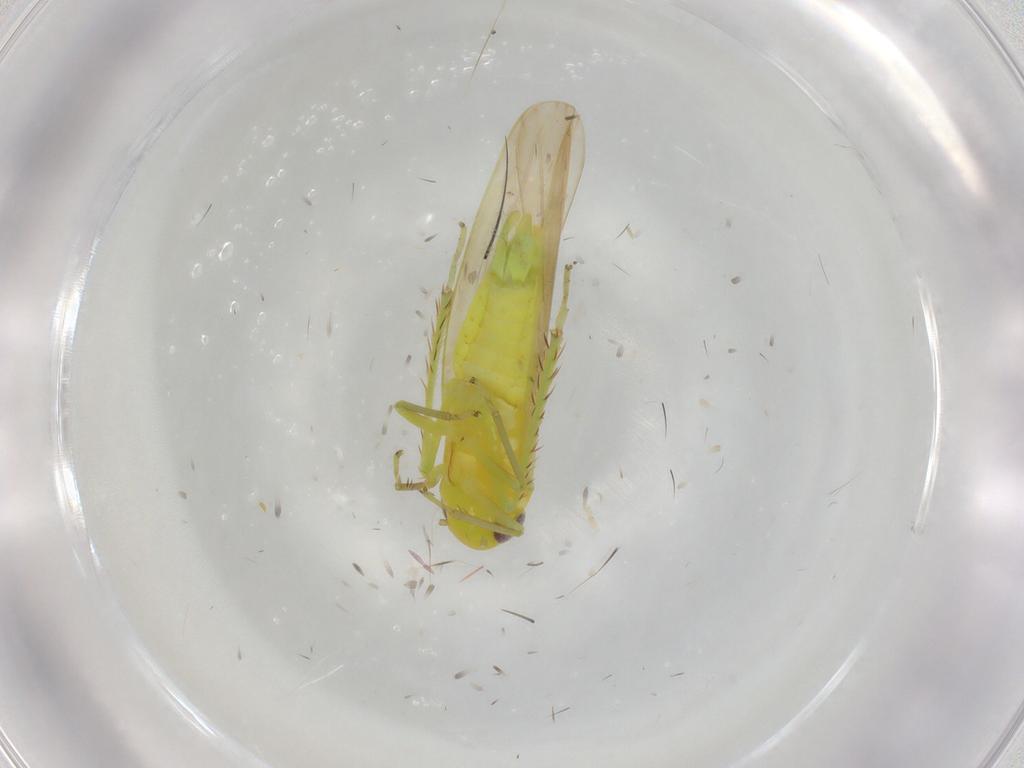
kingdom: Animalia
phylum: Arthropoda
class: Insecta
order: Hemiptera
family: Cicadellidae
